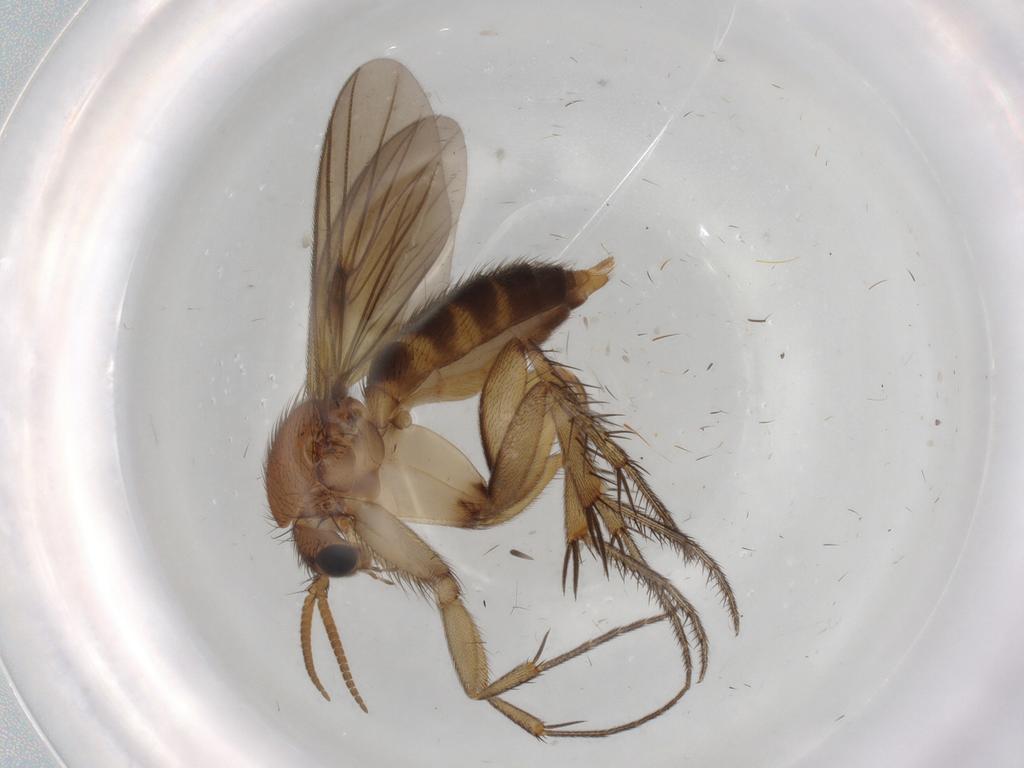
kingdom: Animalia
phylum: Arthropoda
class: Insecta
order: Diptera
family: Mycetophilidae
